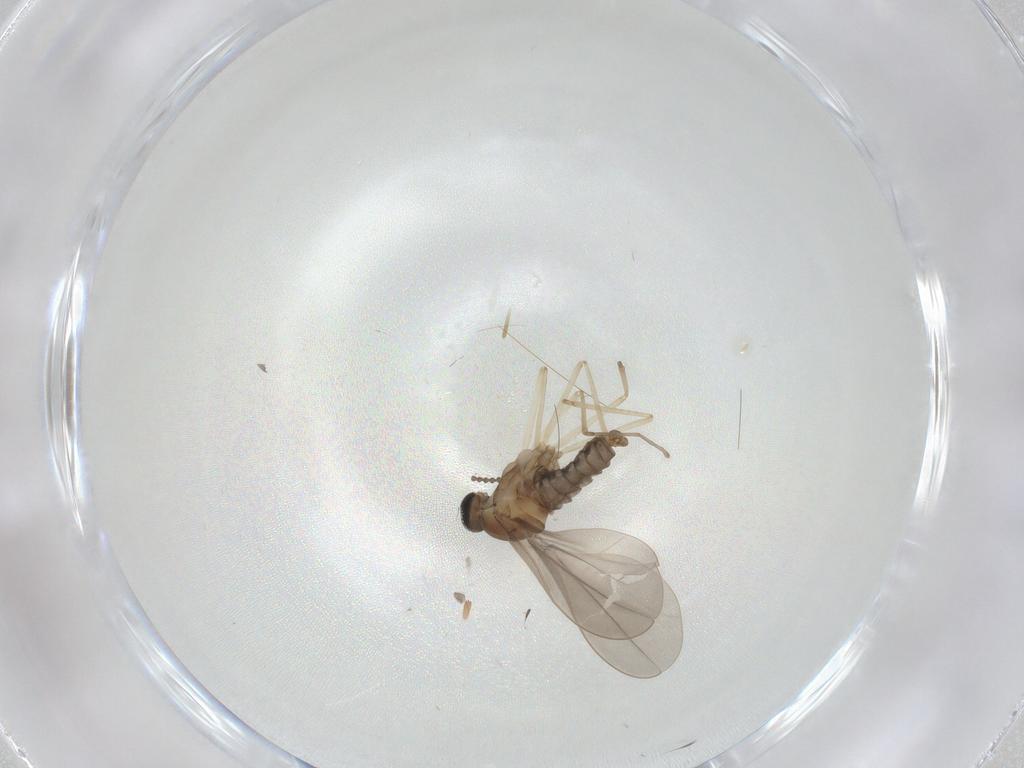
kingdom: Animalia
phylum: Arthropoda
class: Insecta
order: Diptera
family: Cecidomyiidae
